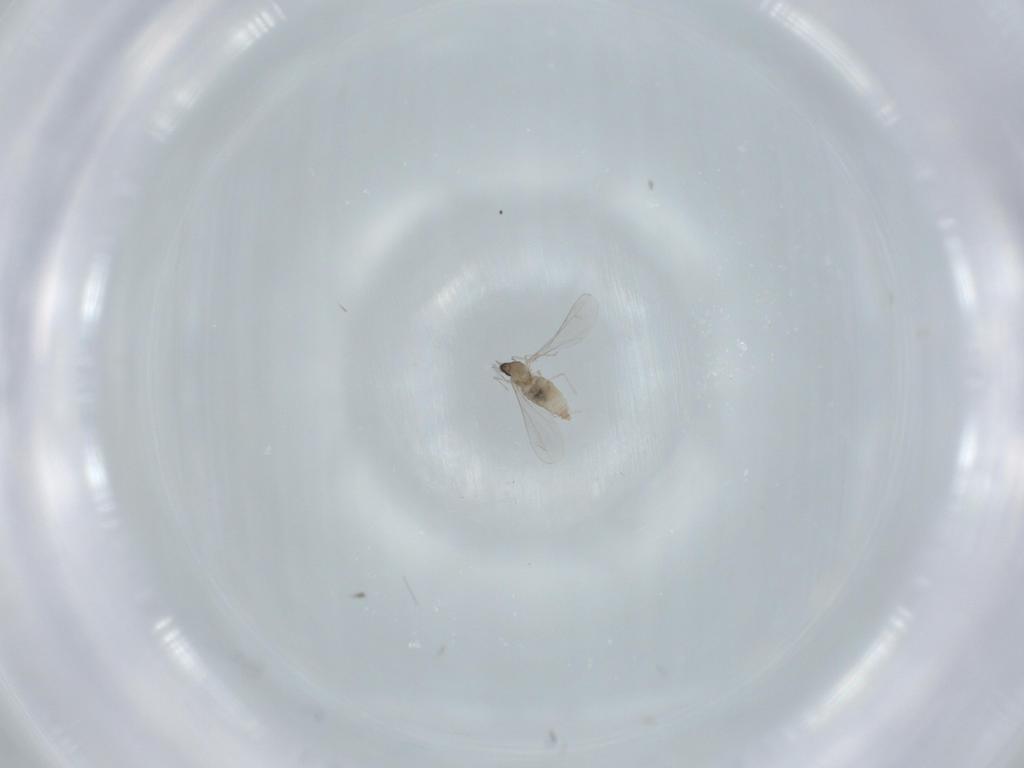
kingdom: Animalia
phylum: Arthropoda
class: Insecta
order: Diptera
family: Cecidomyiidae
